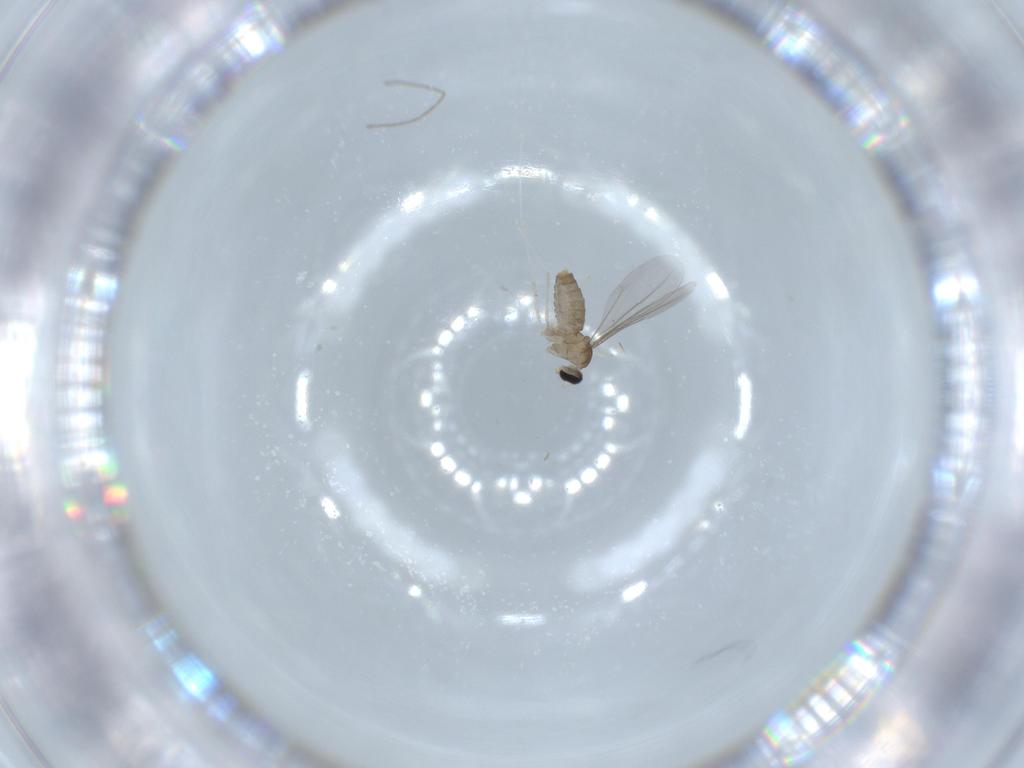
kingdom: Animalia
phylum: Arthropoda
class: Insecta
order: Diptera
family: Cecidomyiidae
